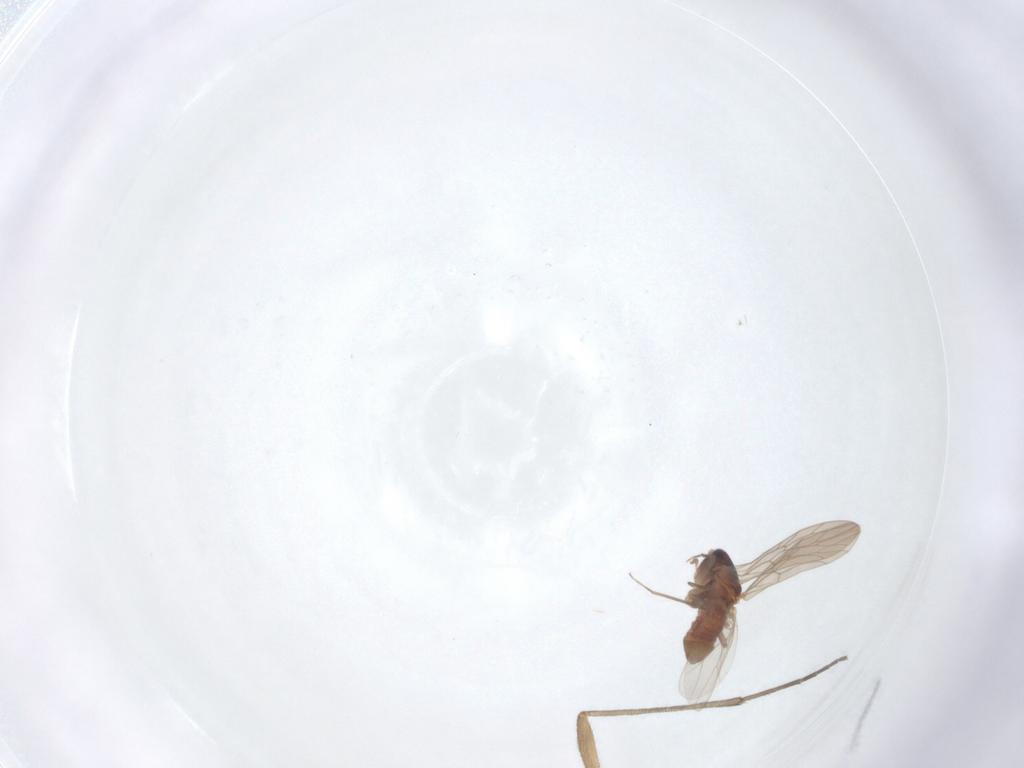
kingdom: Animalia
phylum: Arthropoda
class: Insecta
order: Diptera
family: Sciaridae
